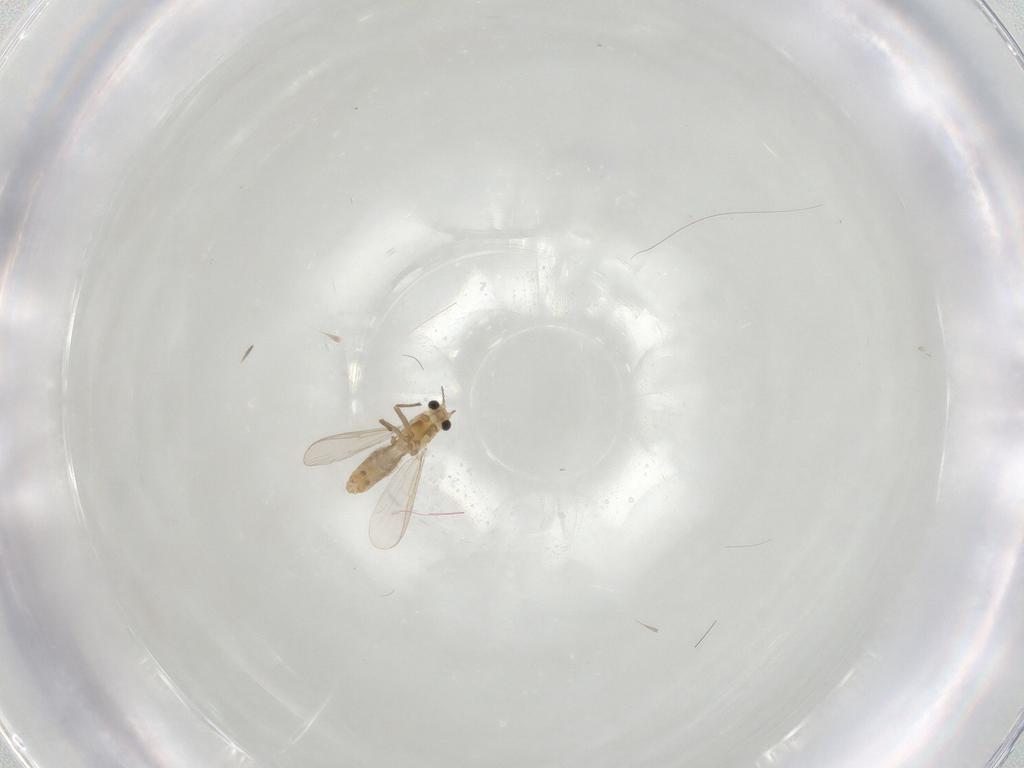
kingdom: Animalia
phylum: Arthropoda
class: Insecta
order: Diptera
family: Chironomidae
